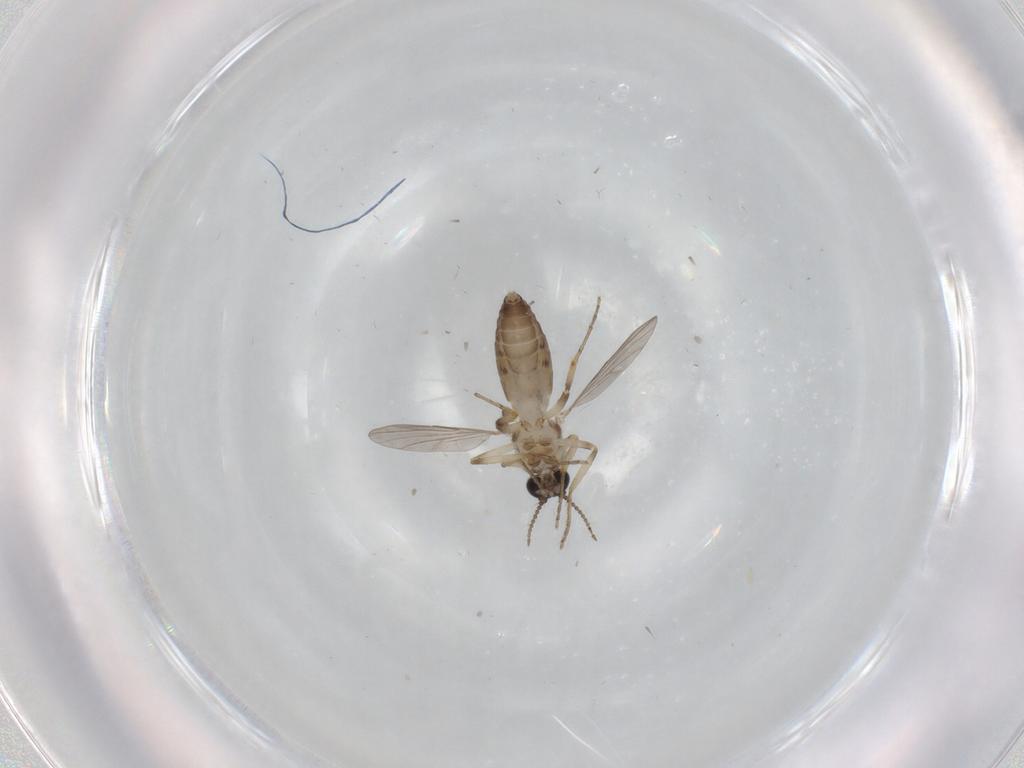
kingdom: Animalia
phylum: Arthropoda
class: Insecta
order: Diptera
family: Ceratopogonidae
